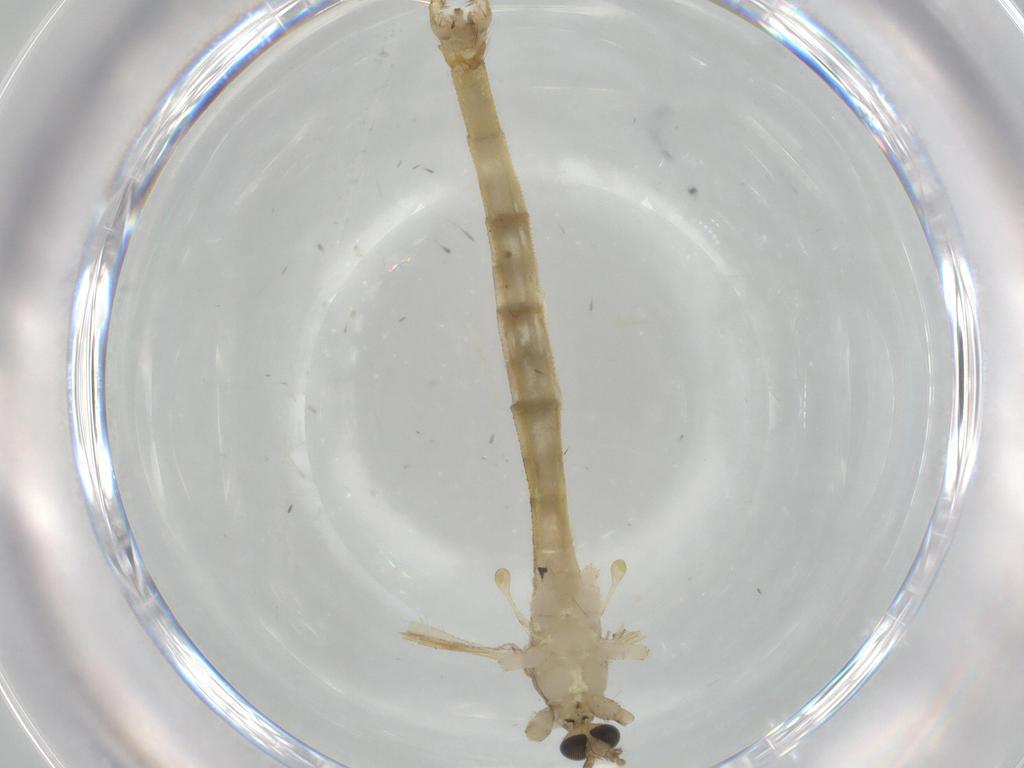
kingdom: Animalia
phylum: Arthropoda
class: Insecta
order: Diptera
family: Limoniidae
